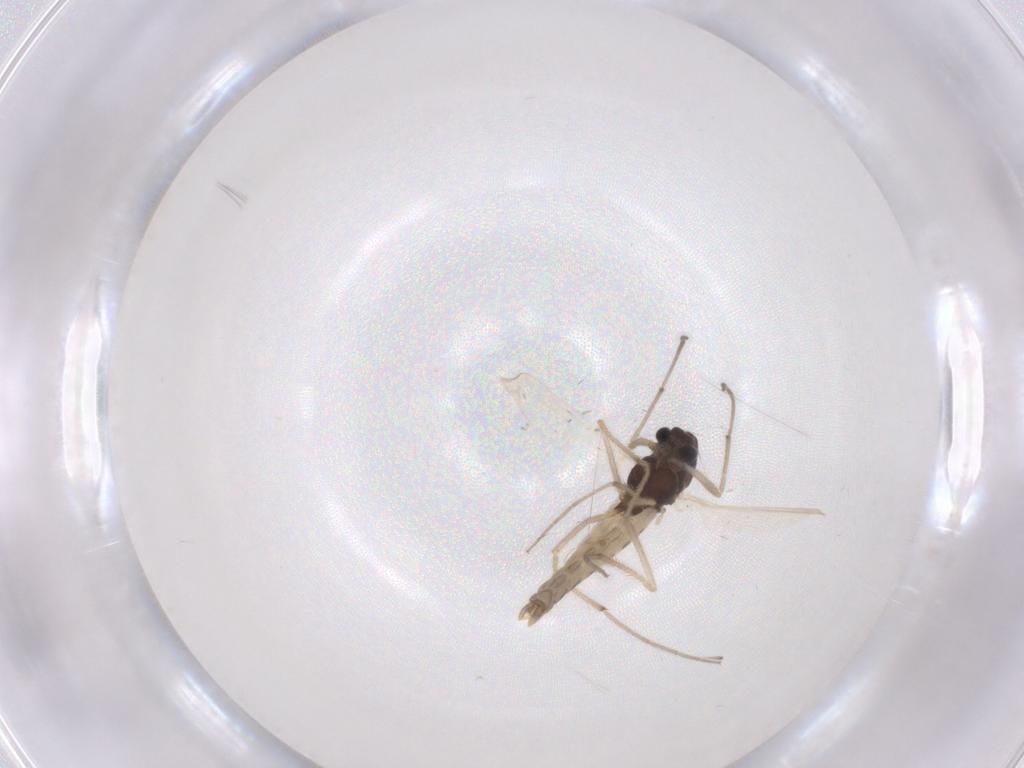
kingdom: Animalia
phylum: Arthropoda
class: Insecta
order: Diptera
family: Chironomidae
